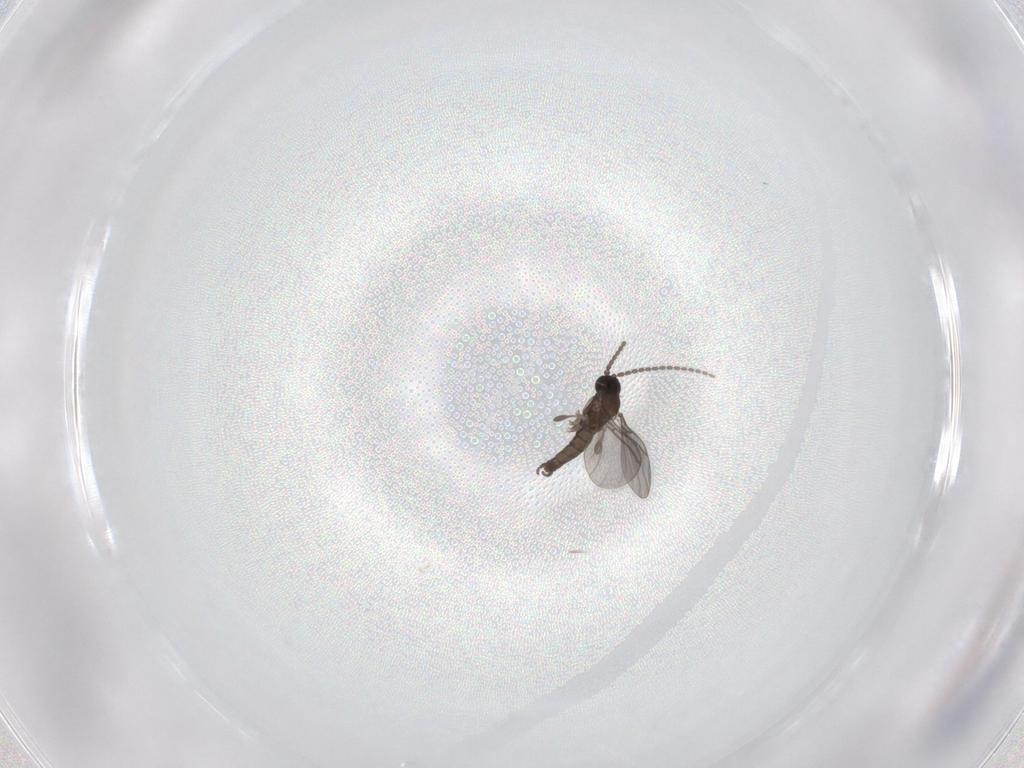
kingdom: Animalia
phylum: Arthropoda
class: Insecta
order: Diptera
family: Sciaridae
